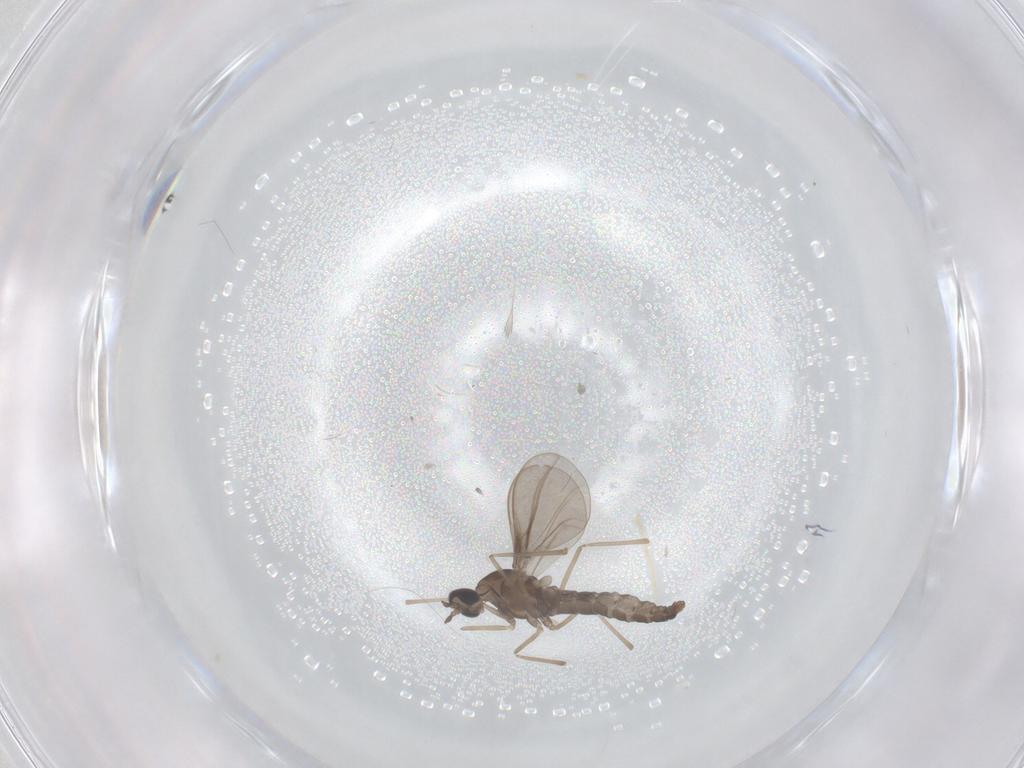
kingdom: Animalia
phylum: Arthropoda
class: Insecta
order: Diptera
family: Cecidomyiidae
